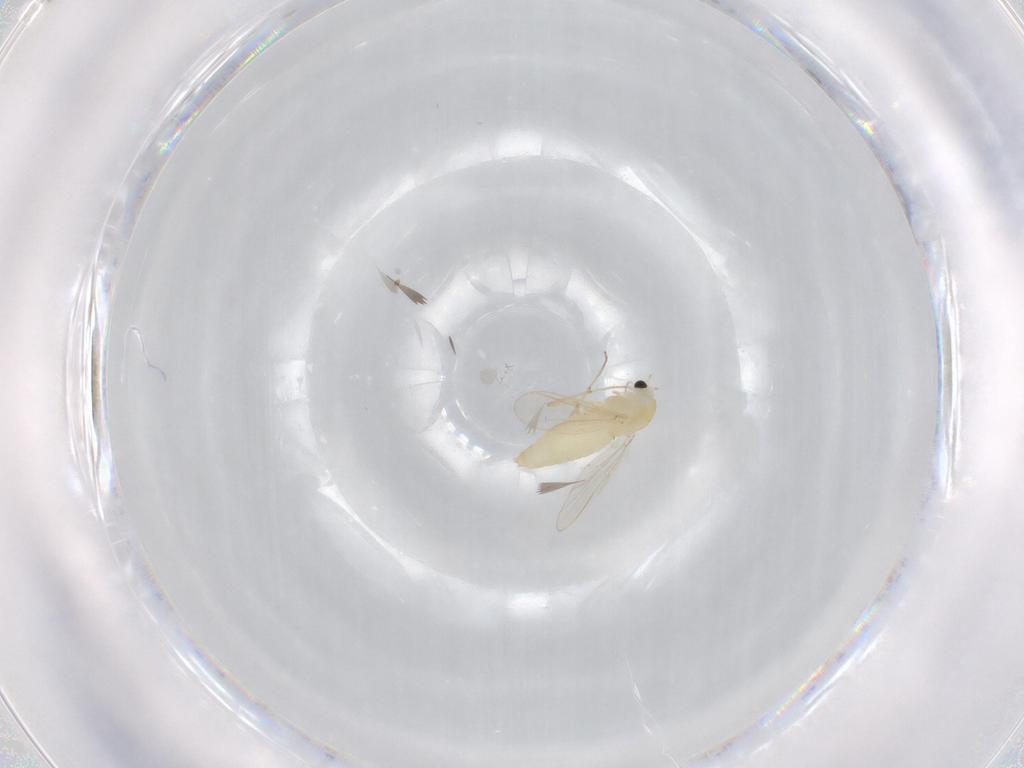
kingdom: Animalia
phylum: Arthropoda
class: Insecta
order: Diptera
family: Chironomidae
